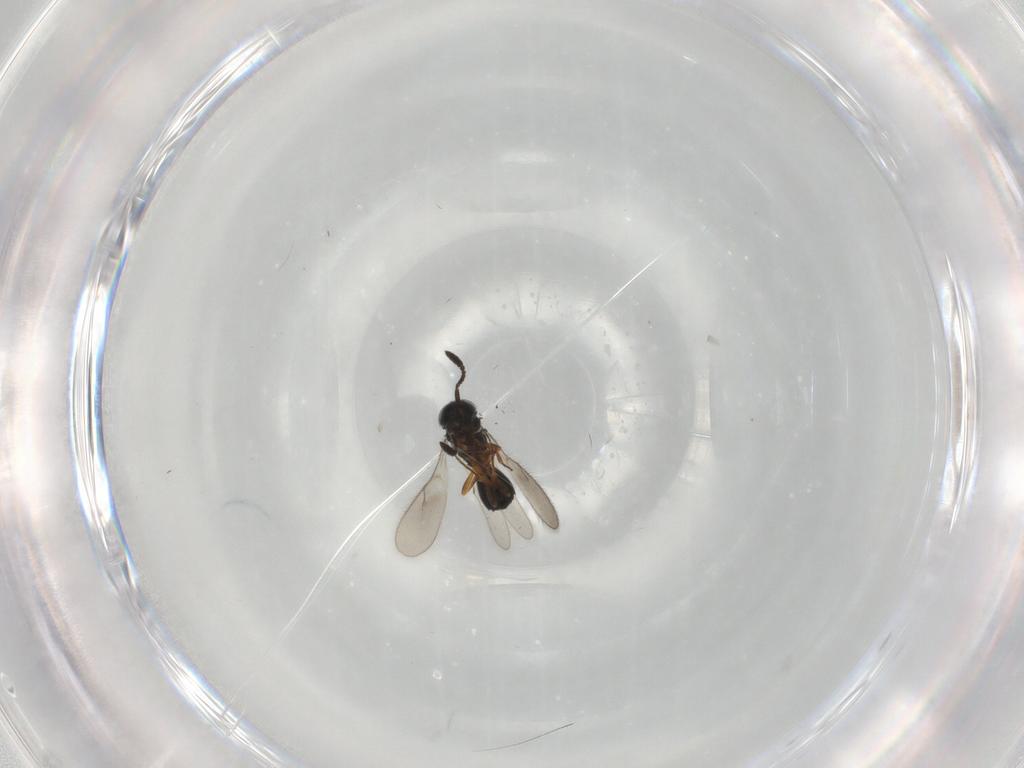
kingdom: Animalia
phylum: Arthropoda
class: Insecta
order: Hymenoptera
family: Scelionidae
